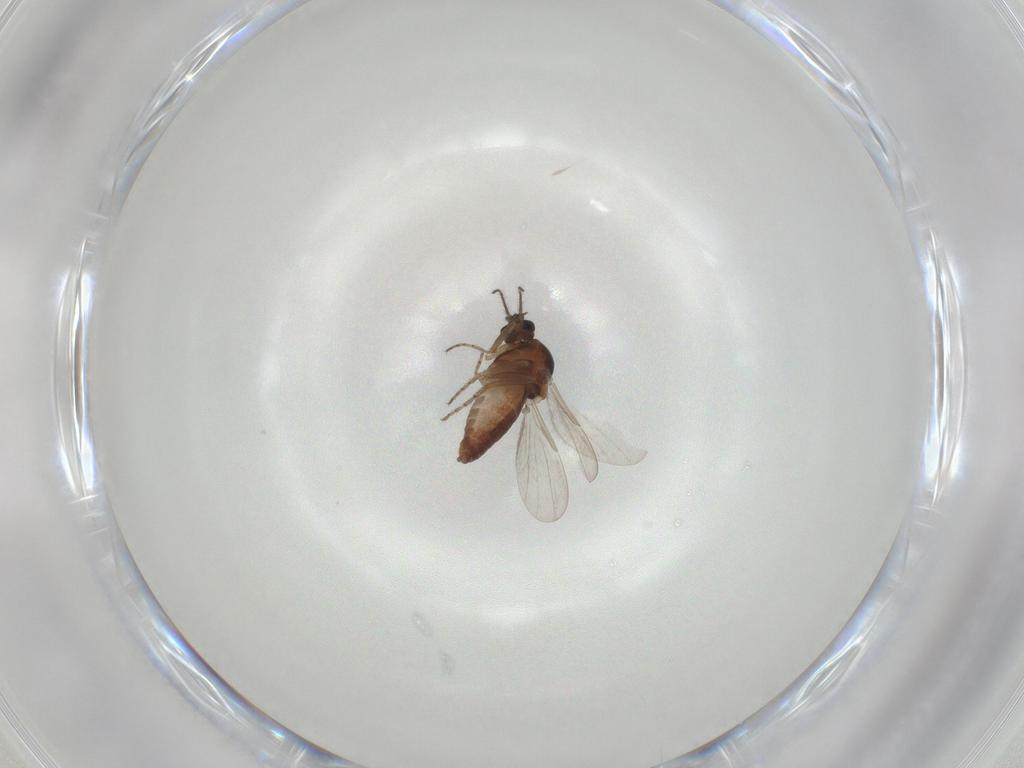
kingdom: Animalia
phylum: Arthropoda
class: Insecta
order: Diptera
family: Ceratopogonidae
